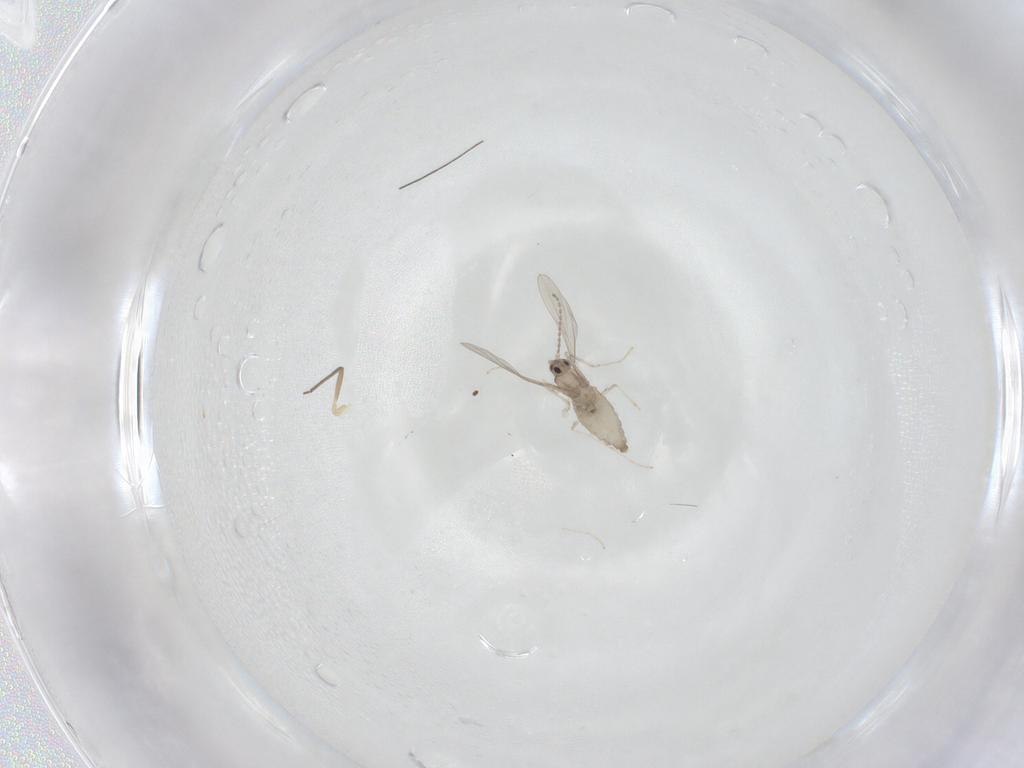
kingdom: Animalia
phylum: Arthropoda
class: Insecta
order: Diptera
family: Cecidomyiidae
